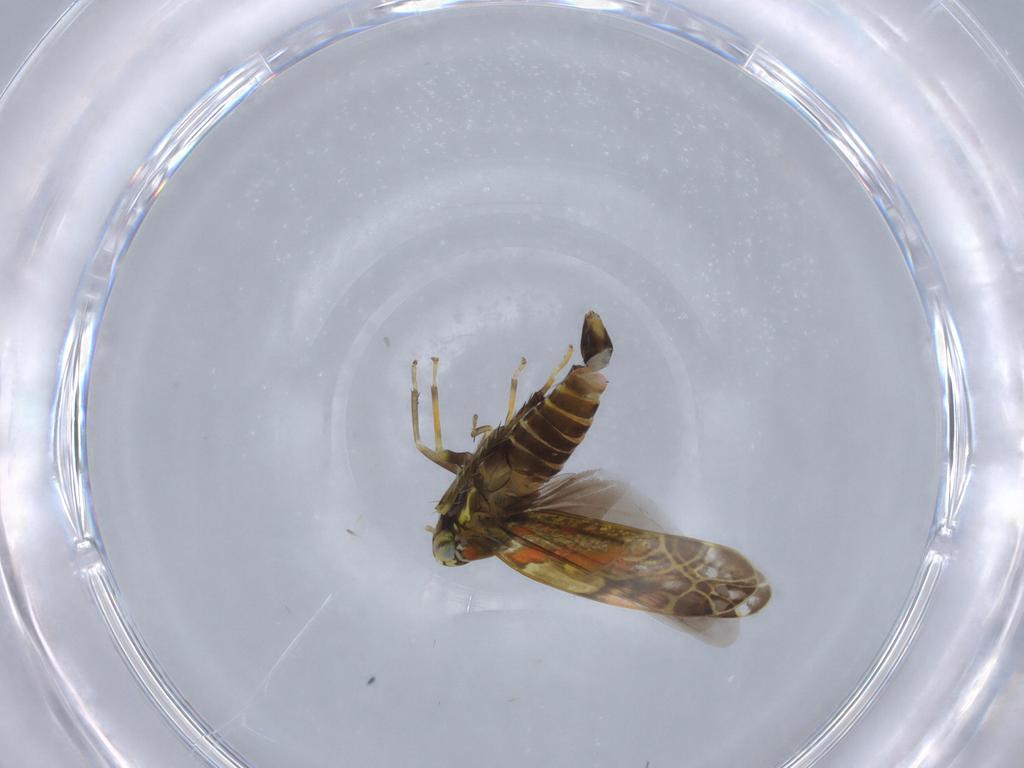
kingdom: Animalia
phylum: Arthropoda
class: Insecta
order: Hemiptera
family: Cicadellidae
